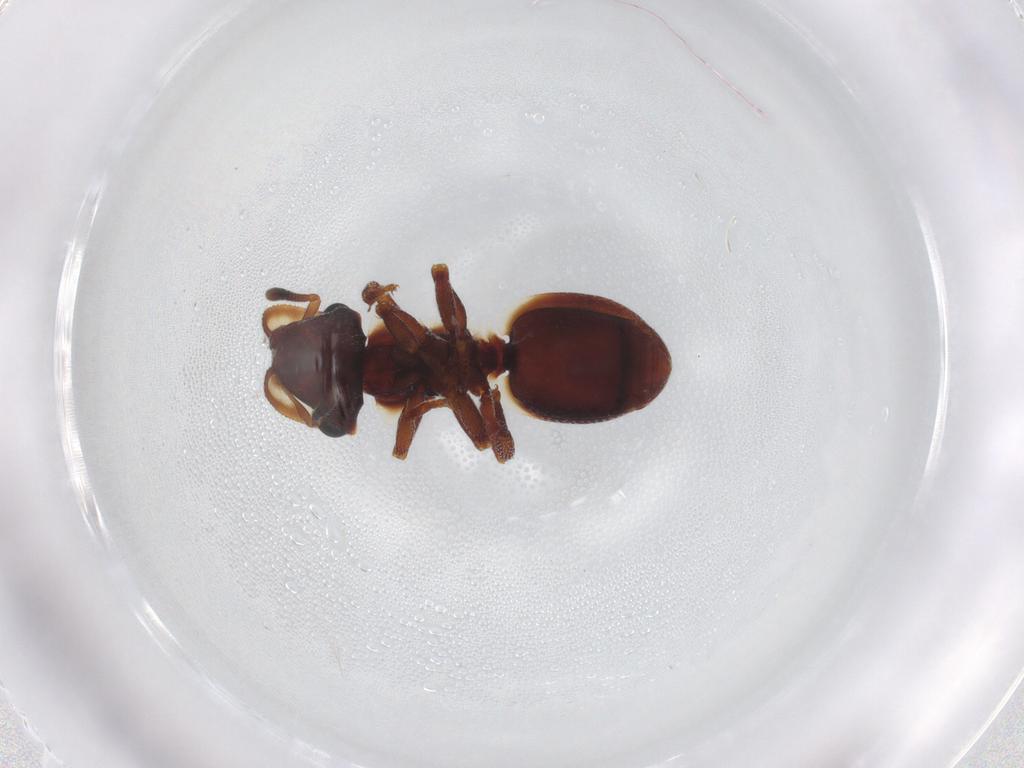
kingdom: Animalia
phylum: Arthropoda
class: Insecta
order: Hymenoptera
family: Formicidae
